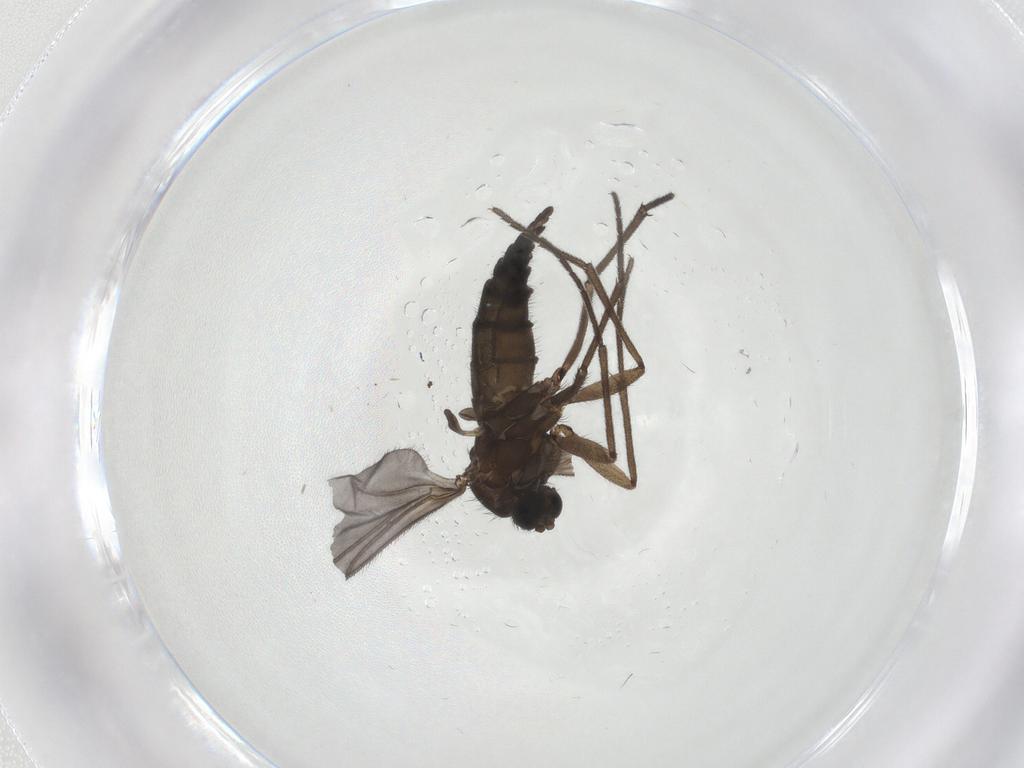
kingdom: Animalia
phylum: Arthropoda
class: Insecta
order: Diptera
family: Sciaridae
